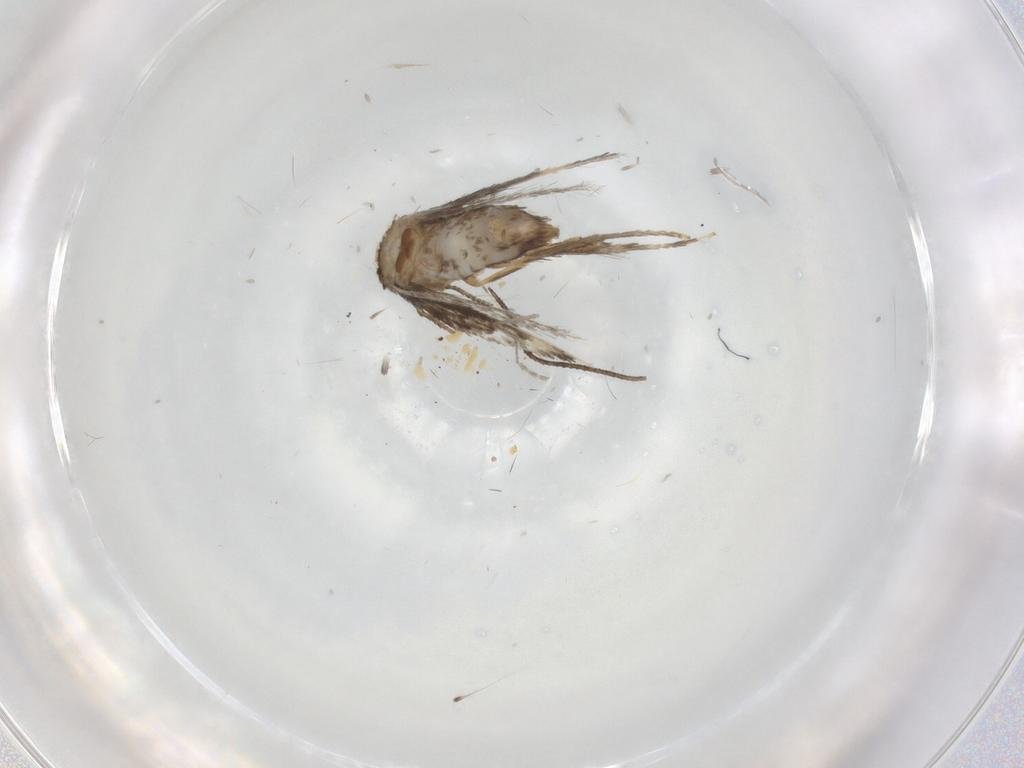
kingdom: Animalia
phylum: Arthropoda
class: Insecta
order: Lepidoptera
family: Nepticulidae
